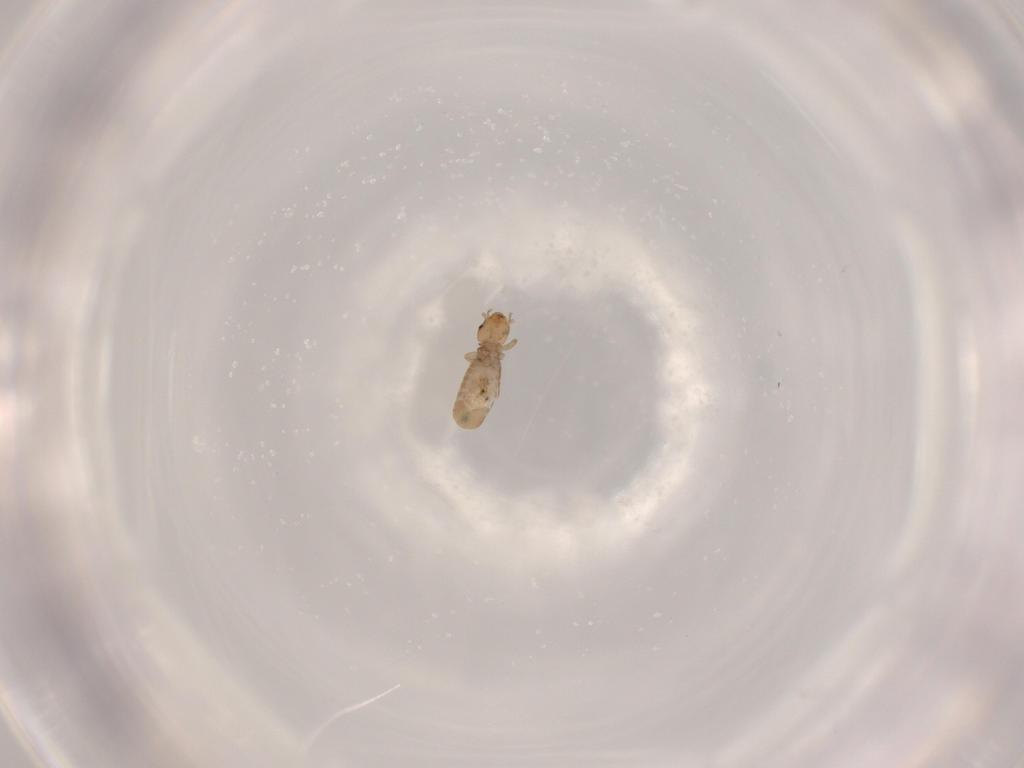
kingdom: Animalia
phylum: Arthropoda
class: Insecta
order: Psocodea
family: Liposcelididae
